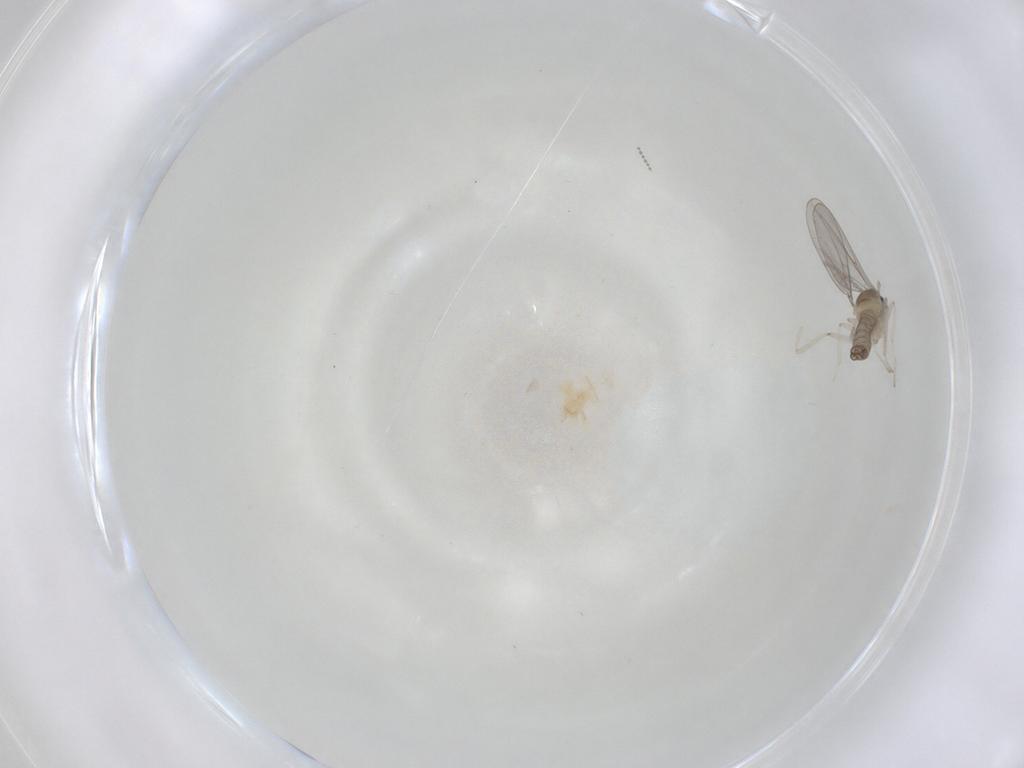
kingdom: Animalia
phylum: Arthropoda
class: Insecta
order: Diptera
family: Cecidomyiidae
